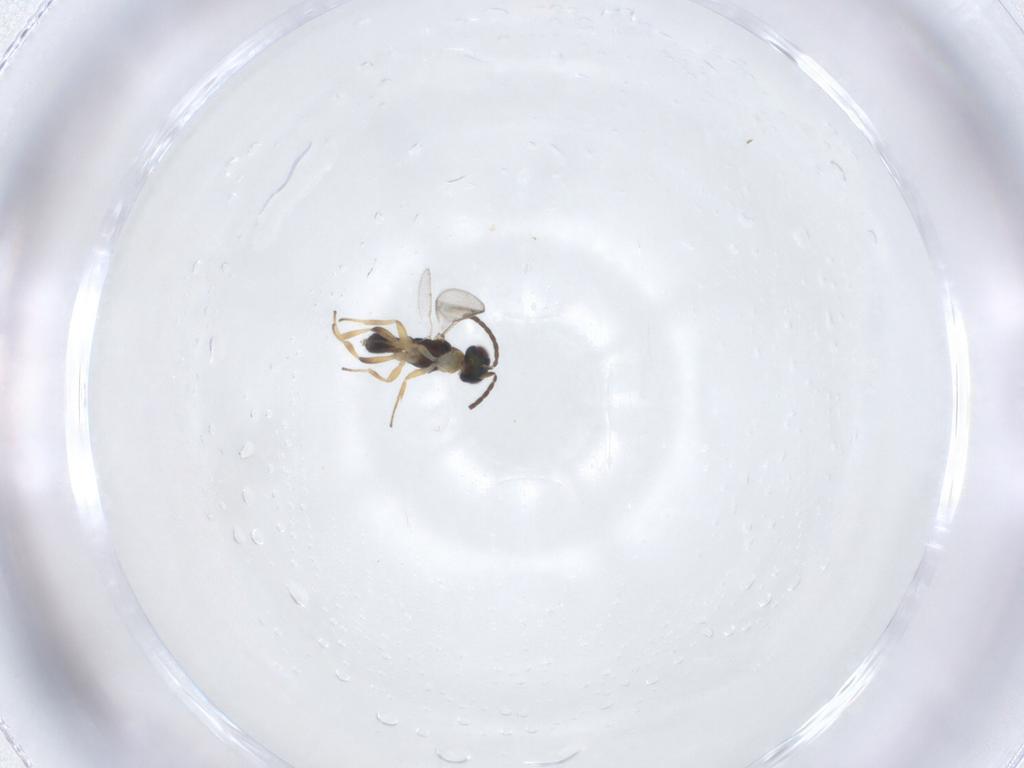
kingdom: Animalia
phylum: Arthropoda
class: Insecta
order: Hymenoptera
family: Eupelmidae
